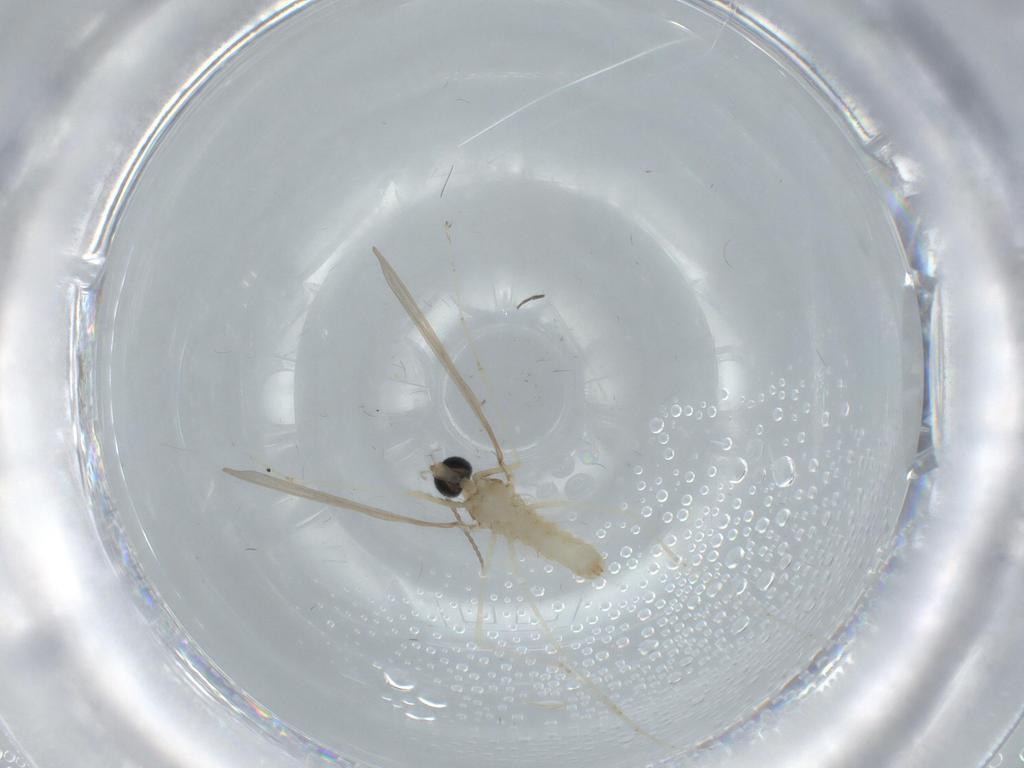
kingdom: Animalia
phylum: Arthropoda
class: Insecta
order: Diptera
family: Cecidomyiidae
